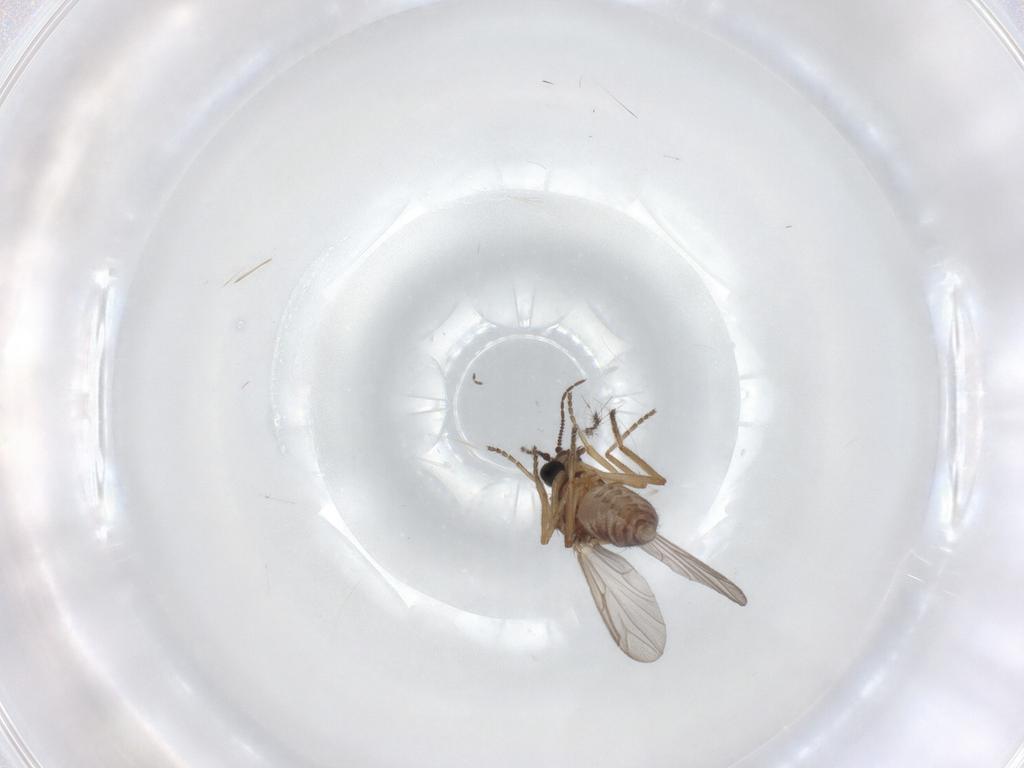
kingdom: Animalia
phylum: Arthropoda
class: Insecta
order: Diptera
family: Ceratopogonidae
